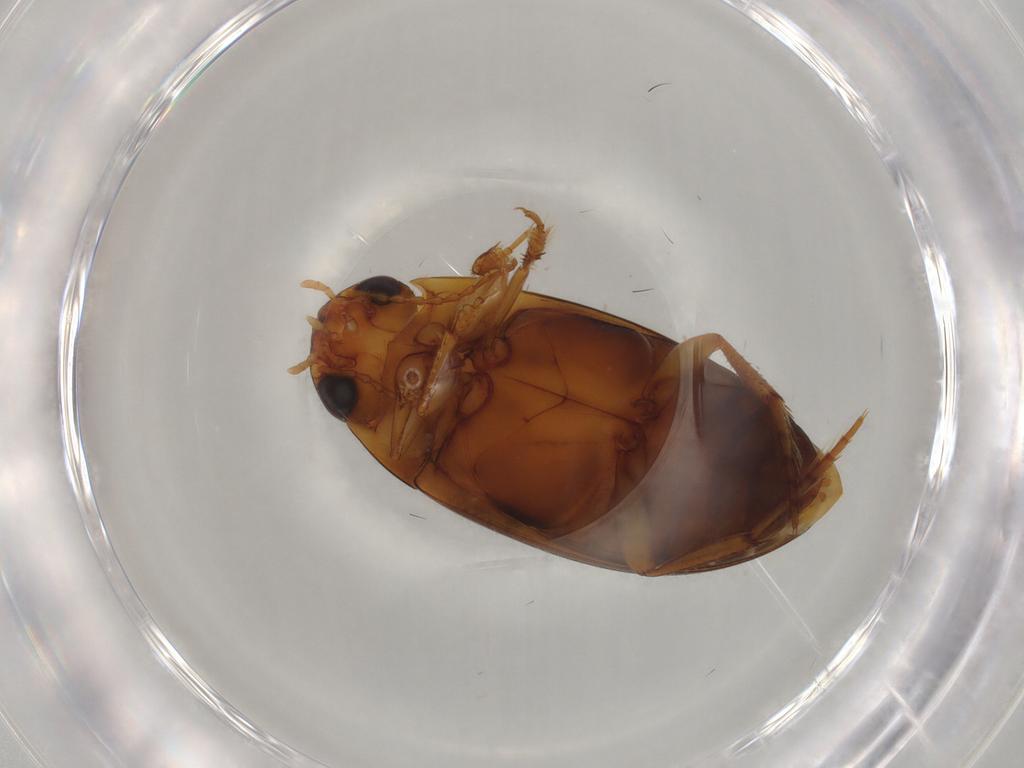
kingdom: Animalia
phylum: Arthropoda
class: Insecta
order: Coleoptera
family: Dytiscidae
